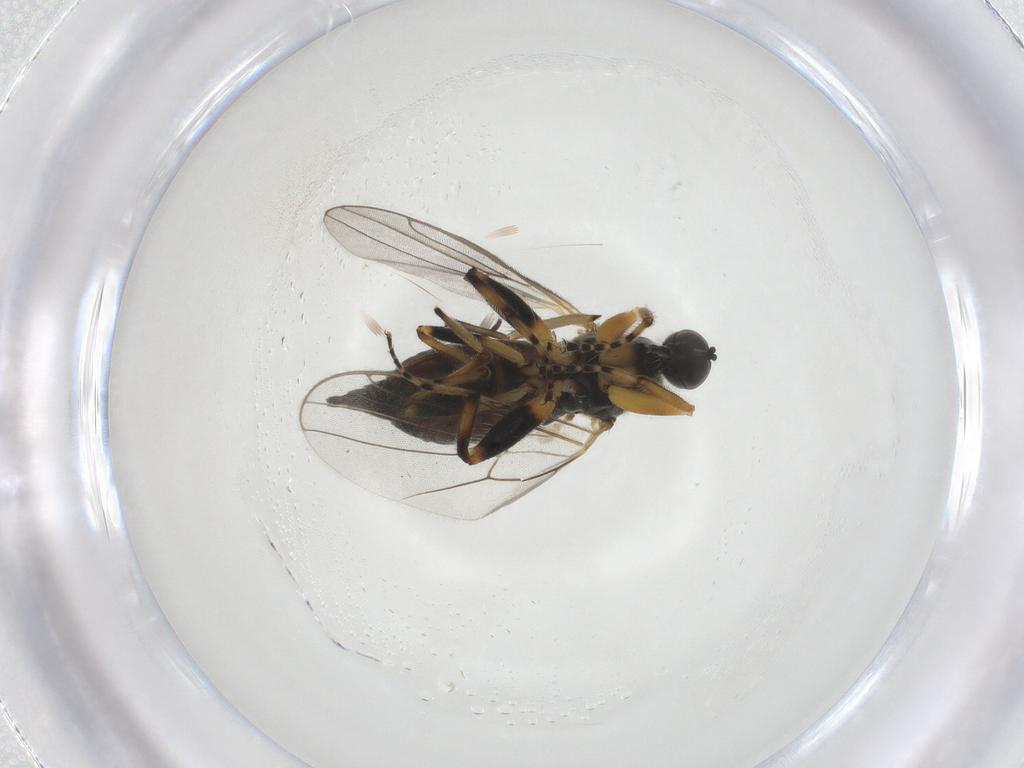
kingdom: Animalia
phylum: Arthropoda
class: Insecta
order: Diptera
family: Hybotidae
